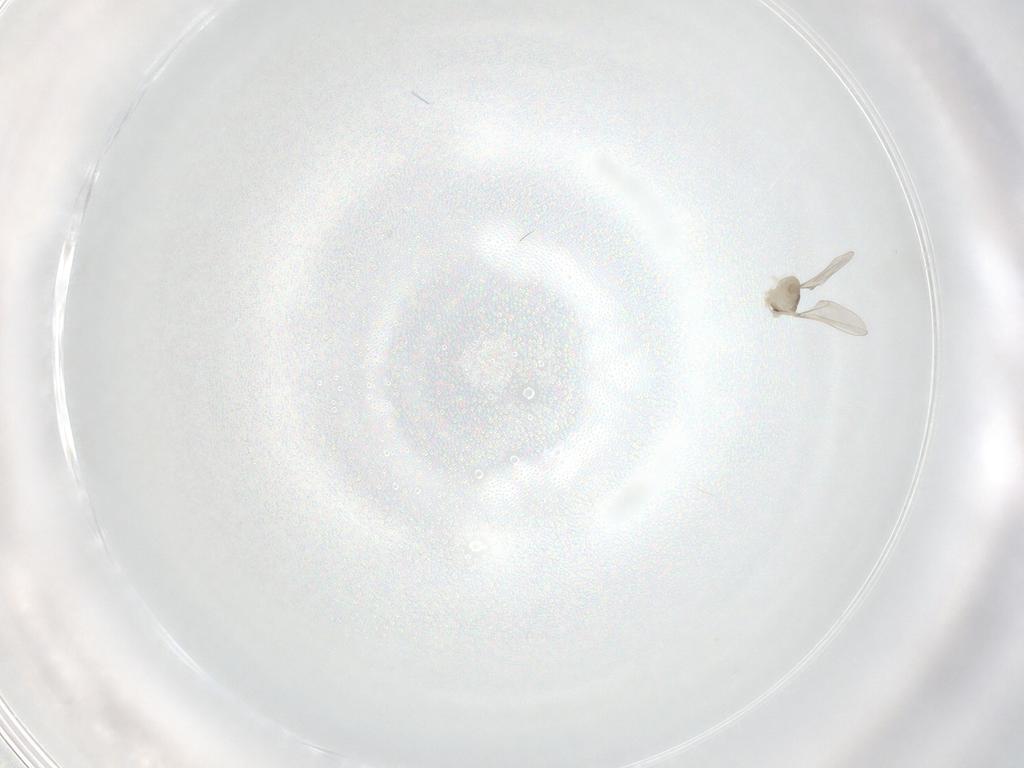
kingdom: Animalia
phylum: Arthropoda
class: Insecta
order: Diptera
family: Cecidomyiidae
